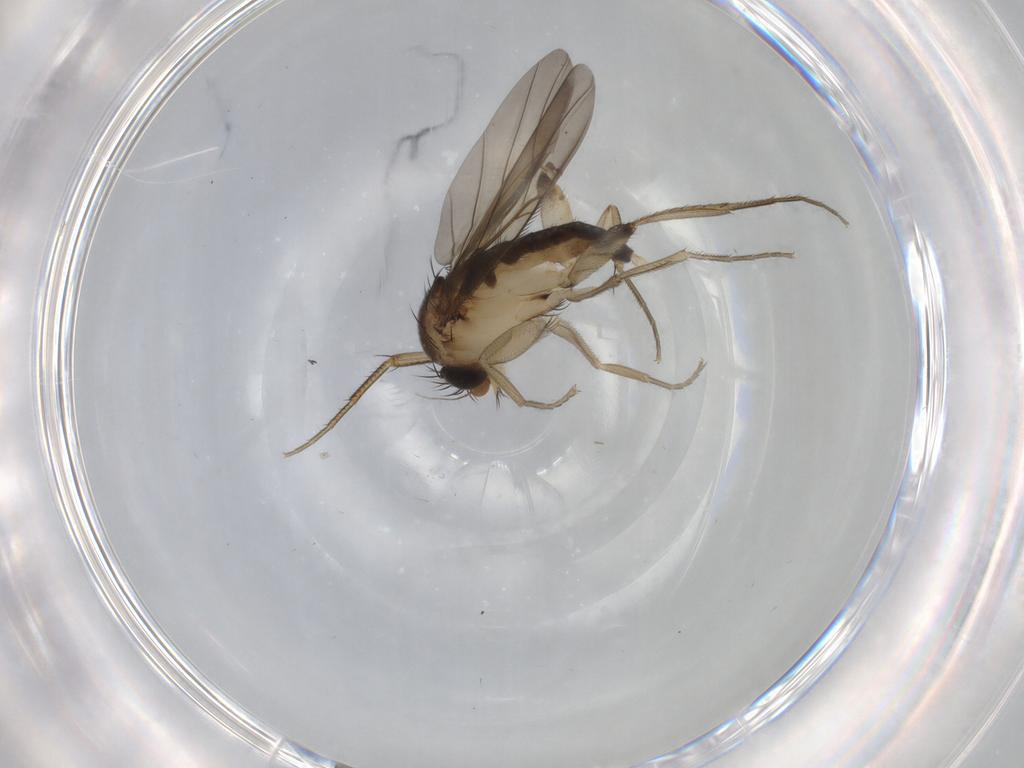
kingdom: Animalia
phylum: Arthropoda
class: Insecta
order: Diptera
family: Phoridae
